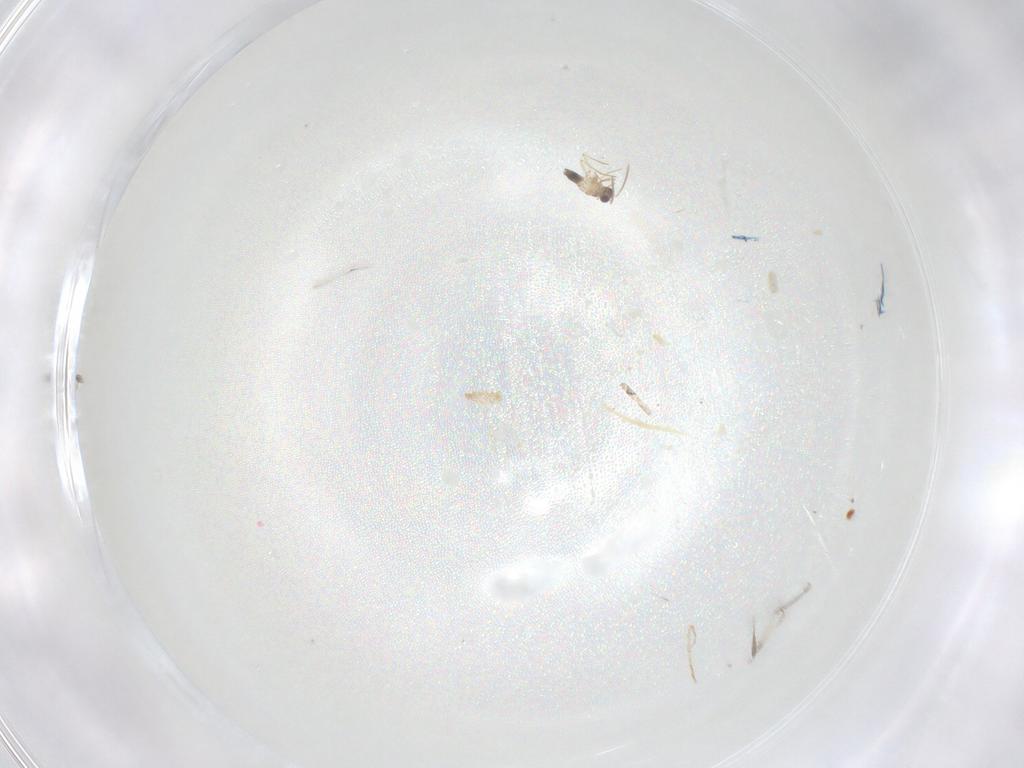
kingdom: Animalia
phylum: Arthropoda
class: Insecta
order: Hymenoptera
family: Mymaridae
